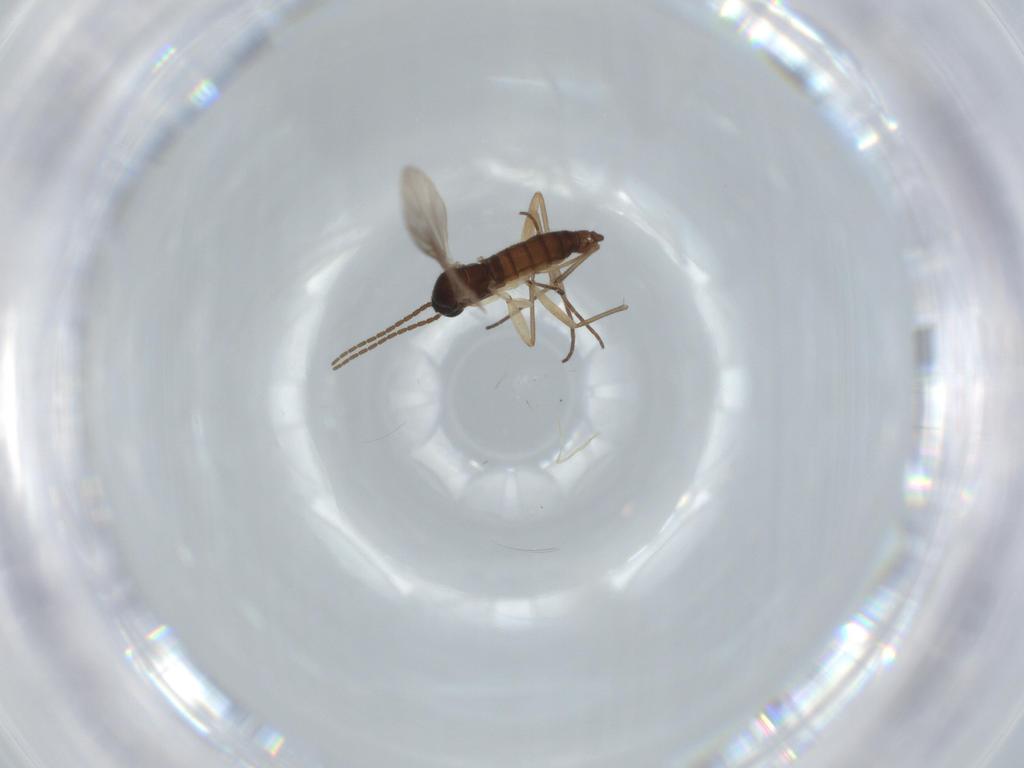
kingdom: Animalia
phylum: Arthropoda
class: Insecta
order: Diptera
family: Sciaridae
